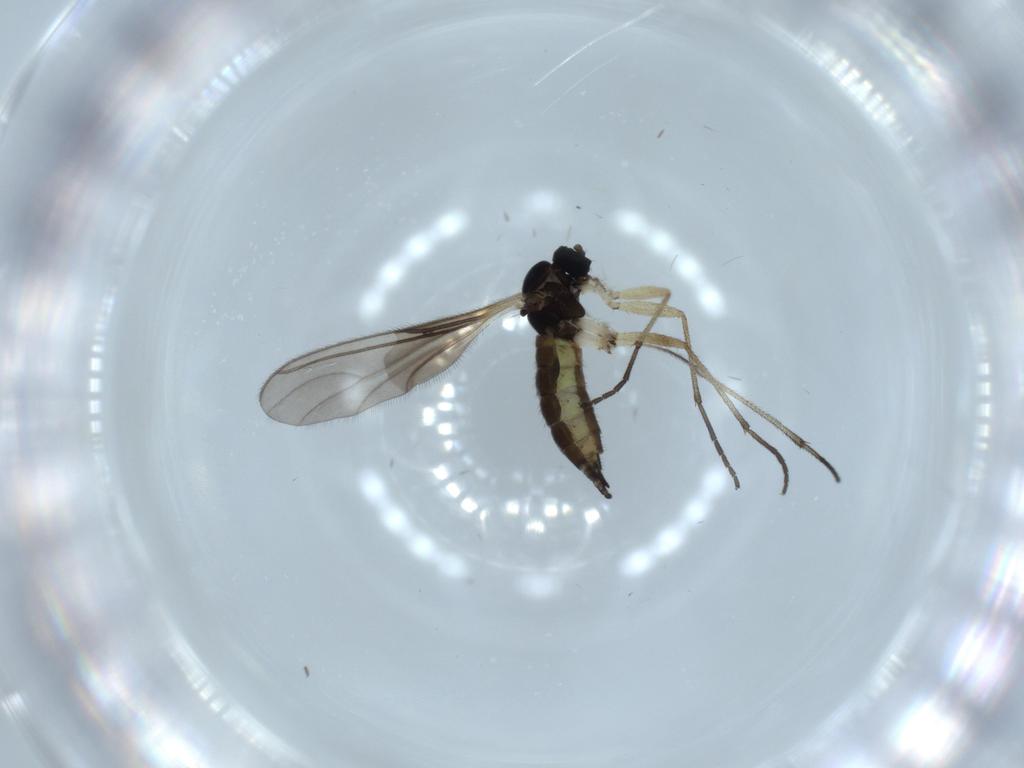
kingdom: Animalia
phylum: Arthropoda
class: Insecta
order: Diptera
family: Sciaridae
